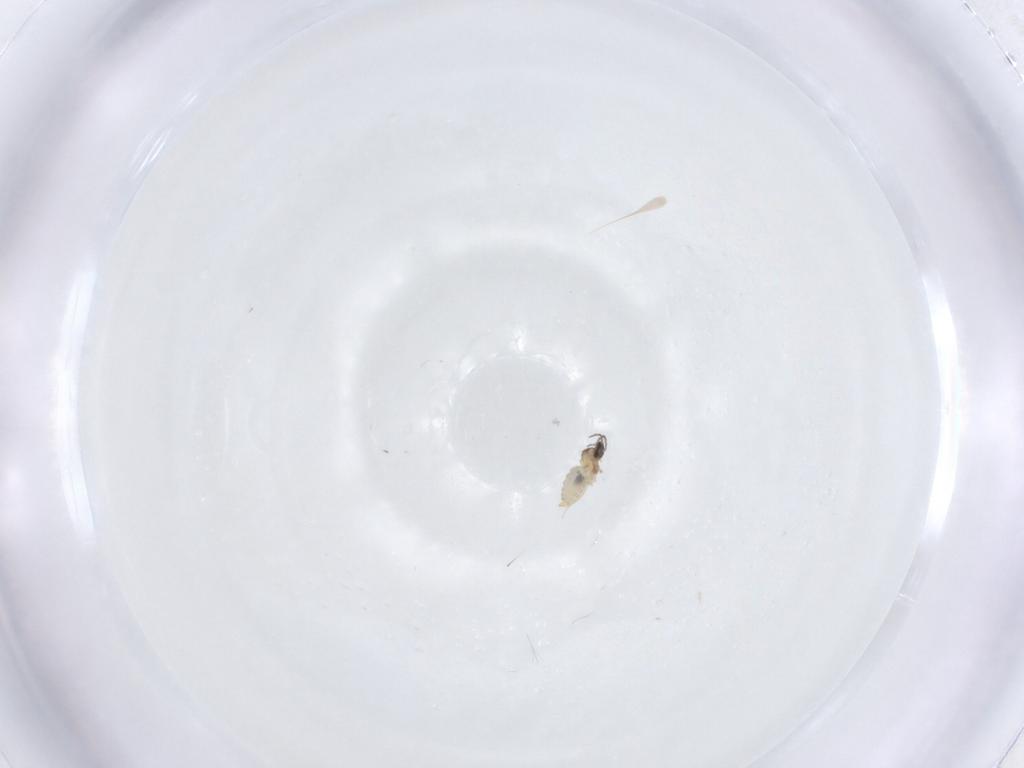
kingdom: Animalia
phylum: Arthropoda
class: Insecta
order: Diptera
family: Cecidomyiidae
